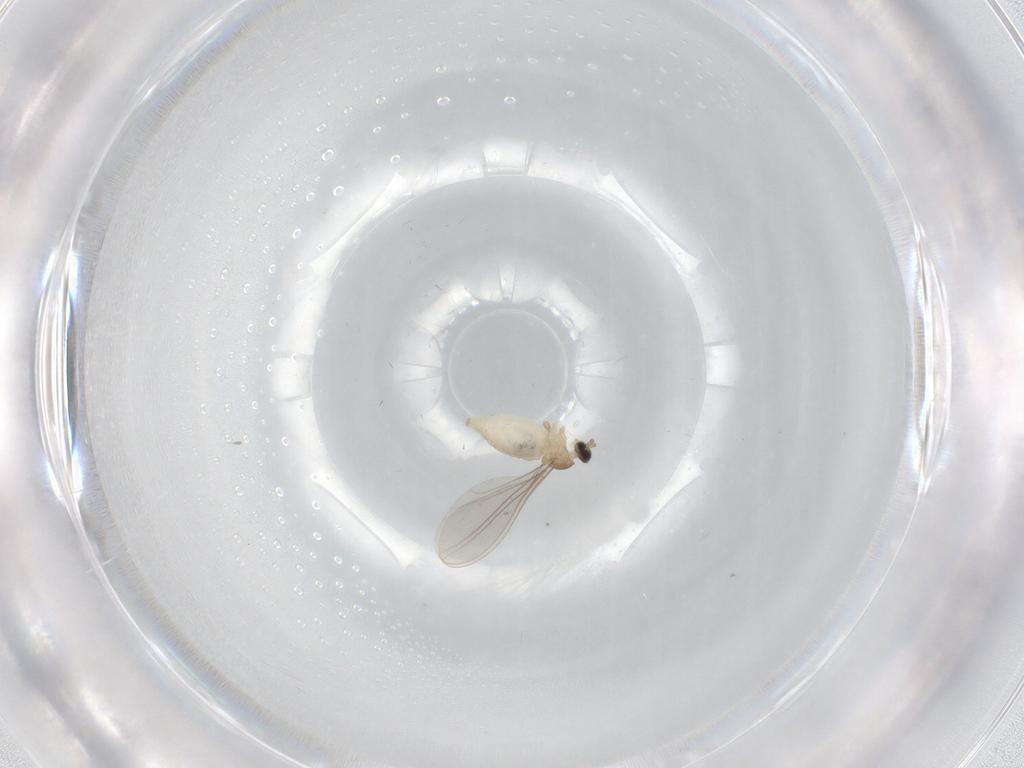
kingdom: Animalia
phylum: Arthropoda
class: Insecta
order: Diptera
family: Cecidomyiidae
